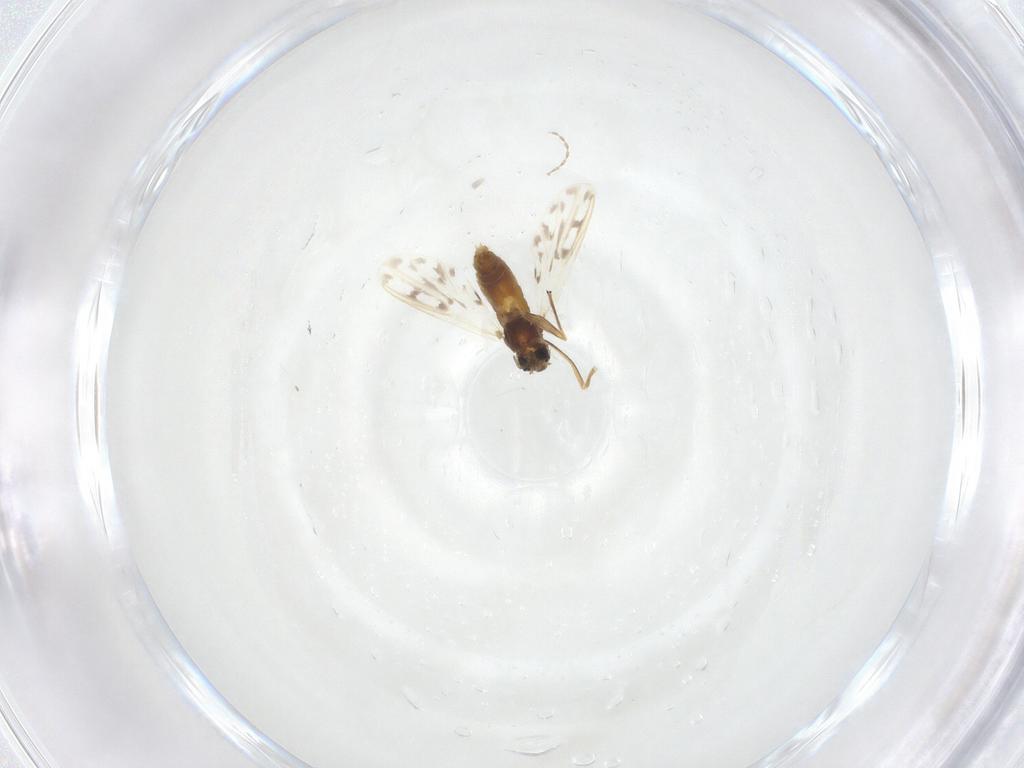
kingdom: Animalia
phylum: Arthropoda
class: Insecta
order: Diptera
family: Chironomidae
